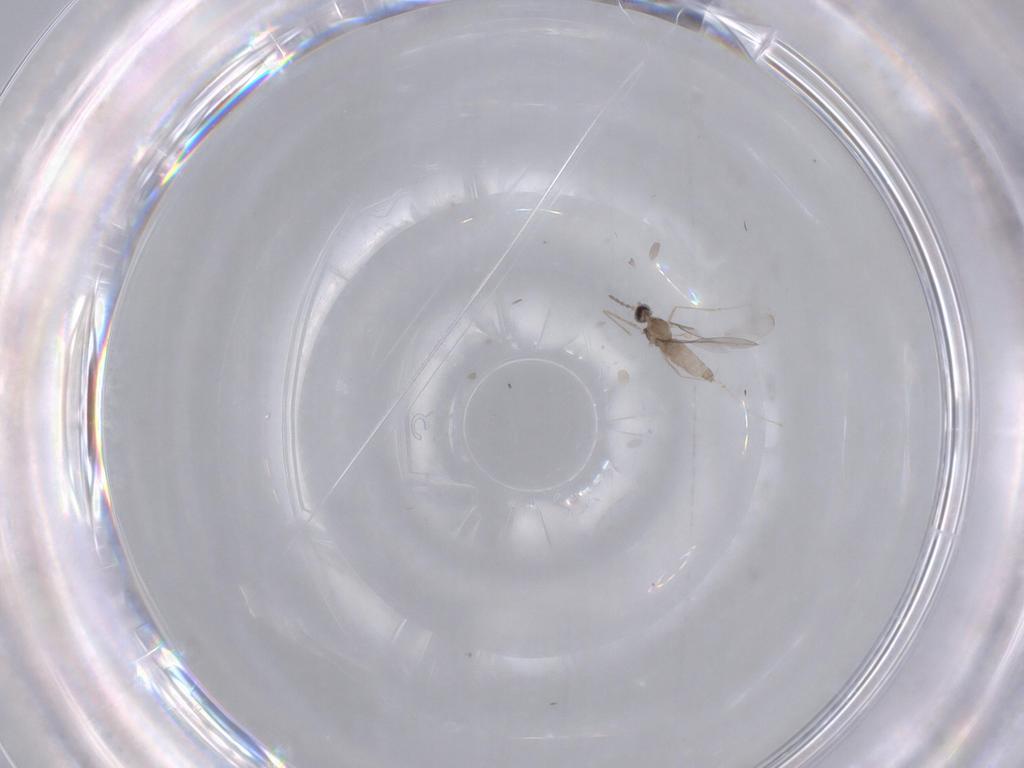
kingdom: Animalia
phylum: Arthropoda
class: Insecta
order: Diptera
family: Cecidomyiidae
